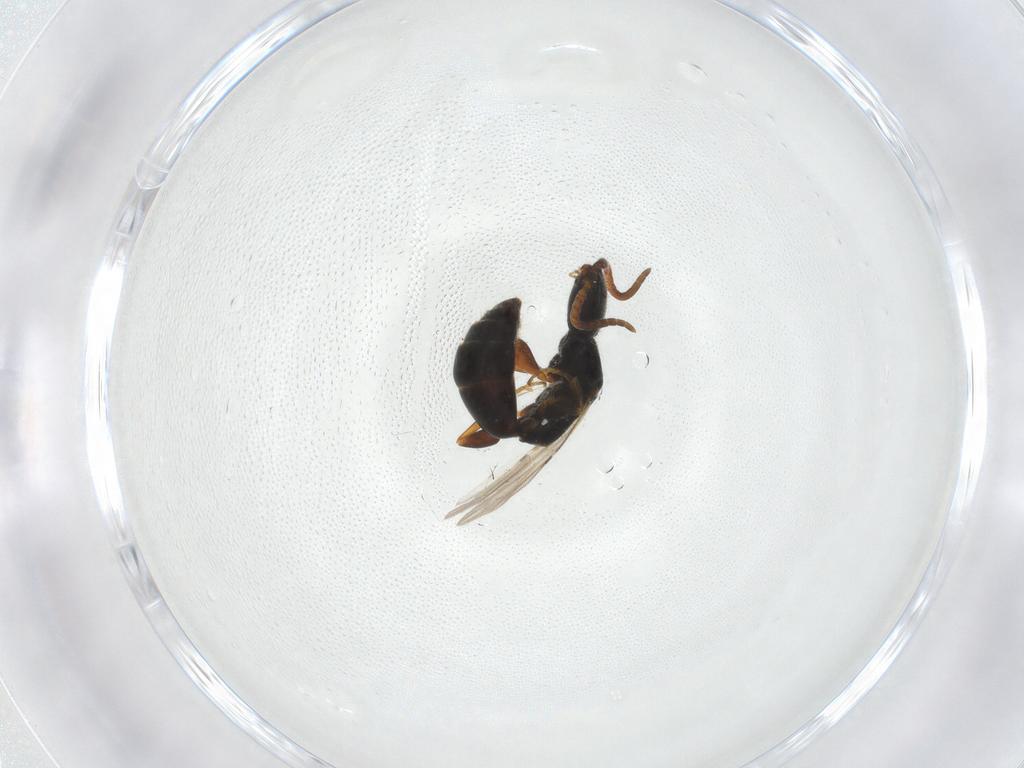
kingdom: Animalia
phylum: Arthropoda
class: Insecta
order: Hymenoptera
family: Bethylidae
